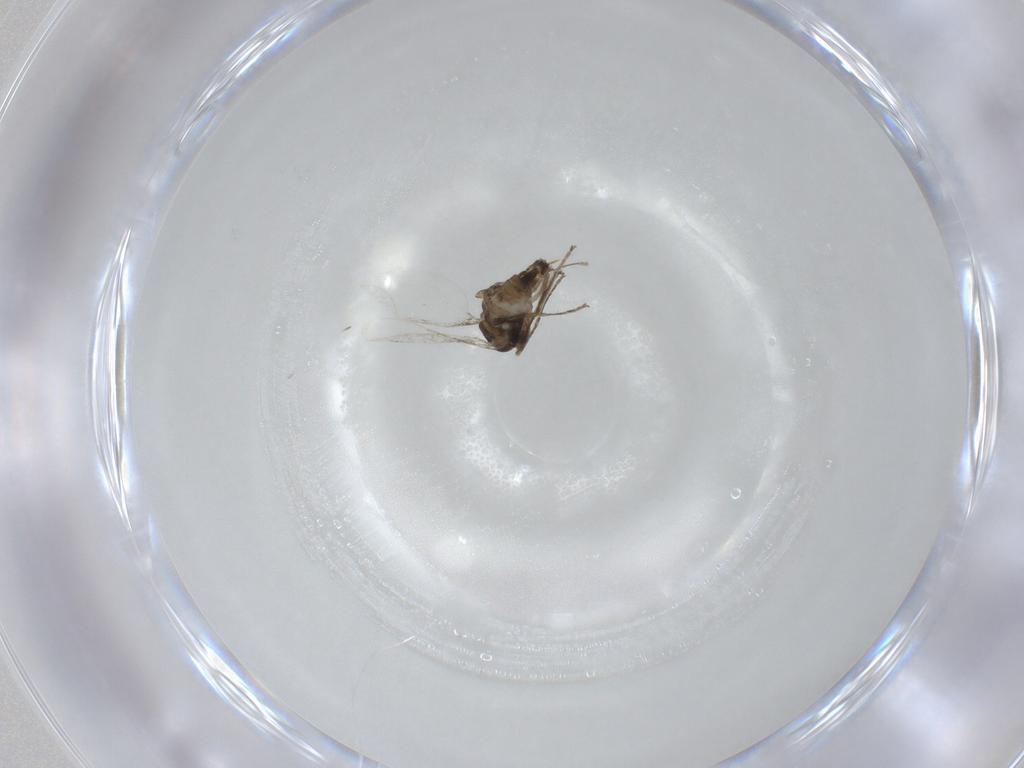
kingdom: Animalia
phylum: Arthropoda
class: Insecta
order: Diptera
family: Cecidomyiidae
